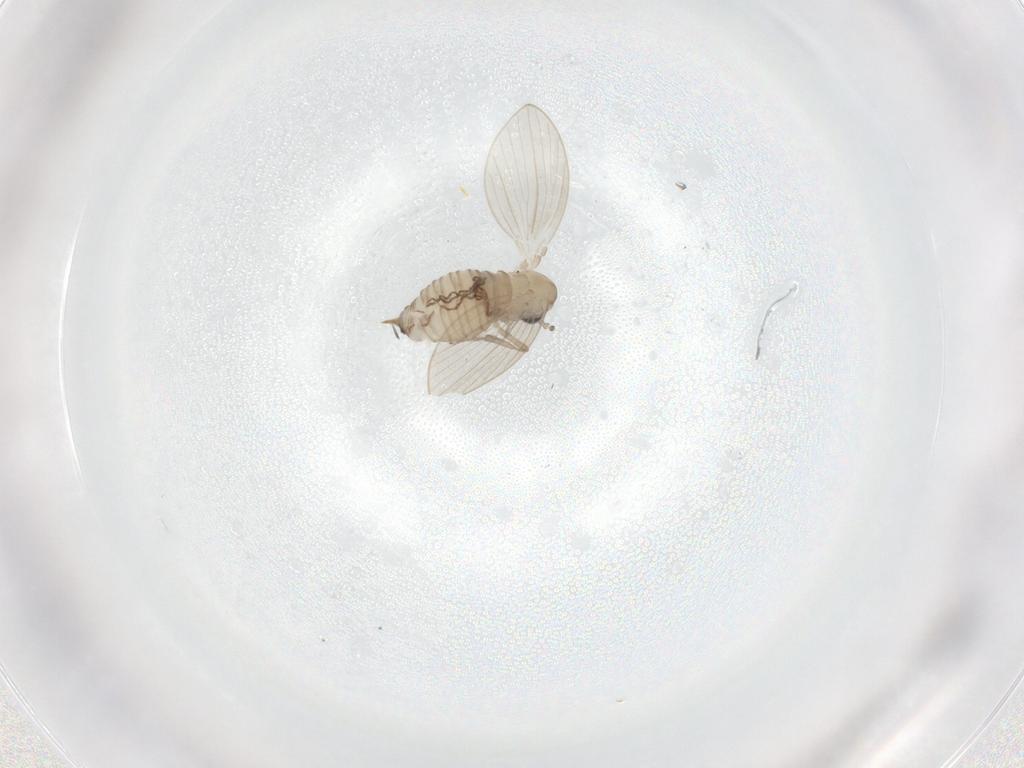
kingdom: Animalia
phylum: Arthropoda
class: Insecta
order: Diptera
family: Psychodidae
